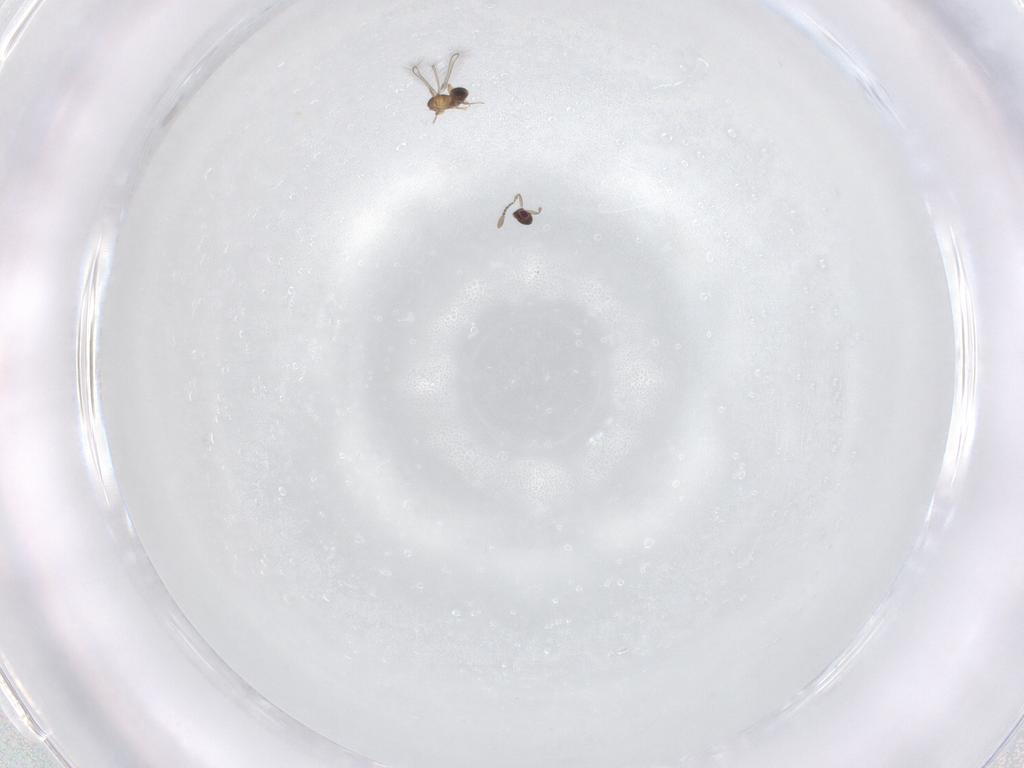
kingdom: Animalia
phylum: Arthropoda
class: Insecta
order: Hymenoptera
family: Mymaridae
